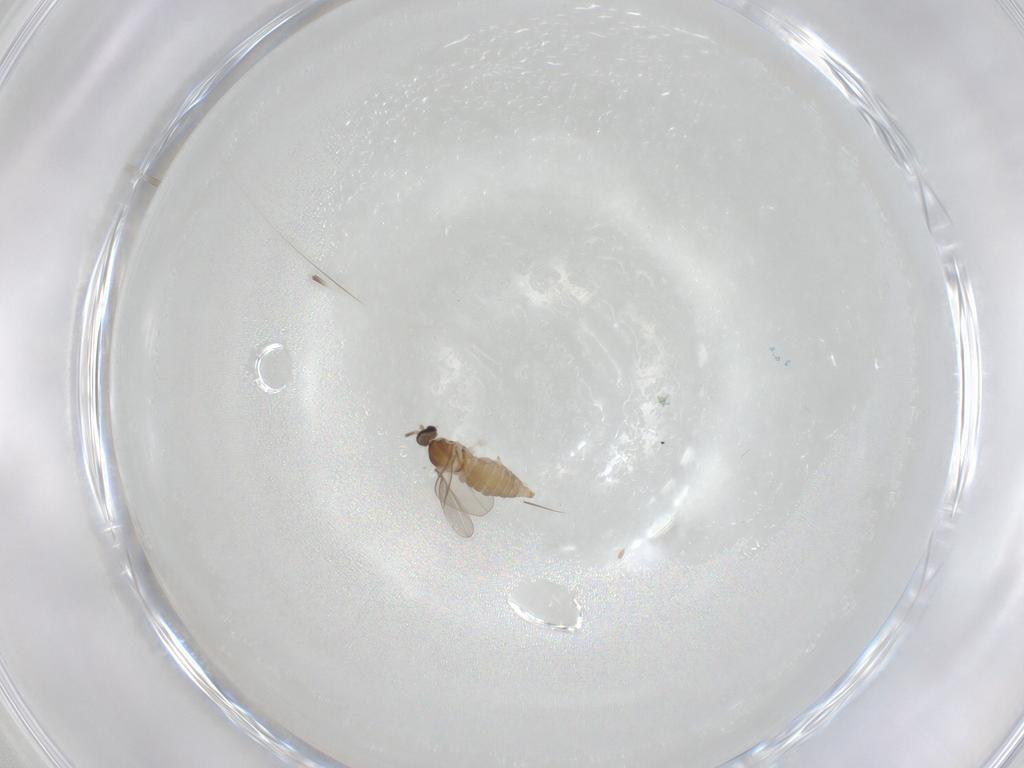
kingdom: Animalia
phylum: Arthropoda
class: Insecta
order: Diptera
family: Cecidomyiidae
